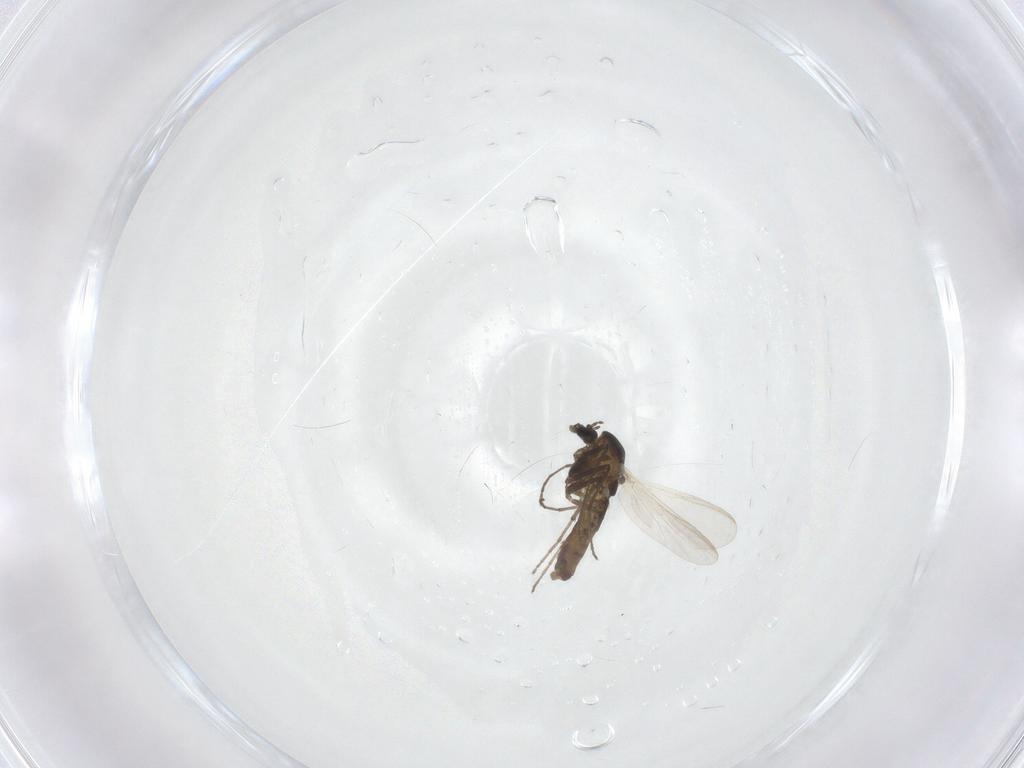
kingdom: Animalia
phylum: Arthropoda
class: Insecta
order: Diptera
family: Chironomidae
